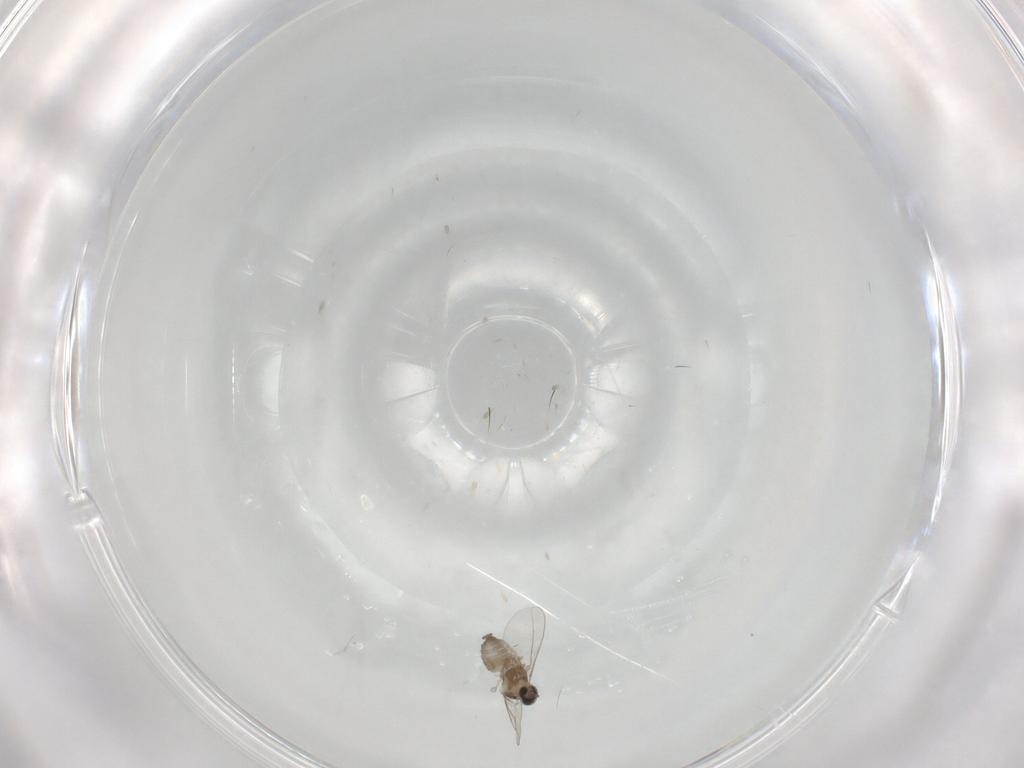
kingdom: Animalia
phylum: Arthropoda
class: Insecta
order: Diptera
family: Cecidomyiidae
